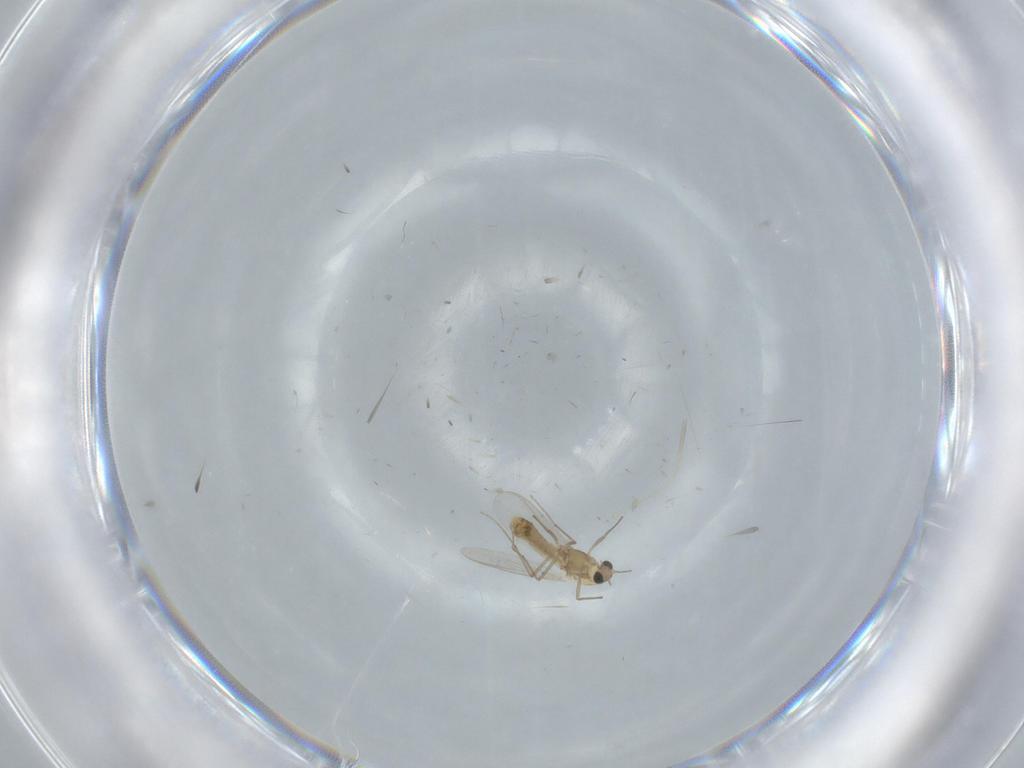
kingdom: Animalia
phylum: Arthropoda
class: Insecta
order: Diptera
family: Chironomidae
